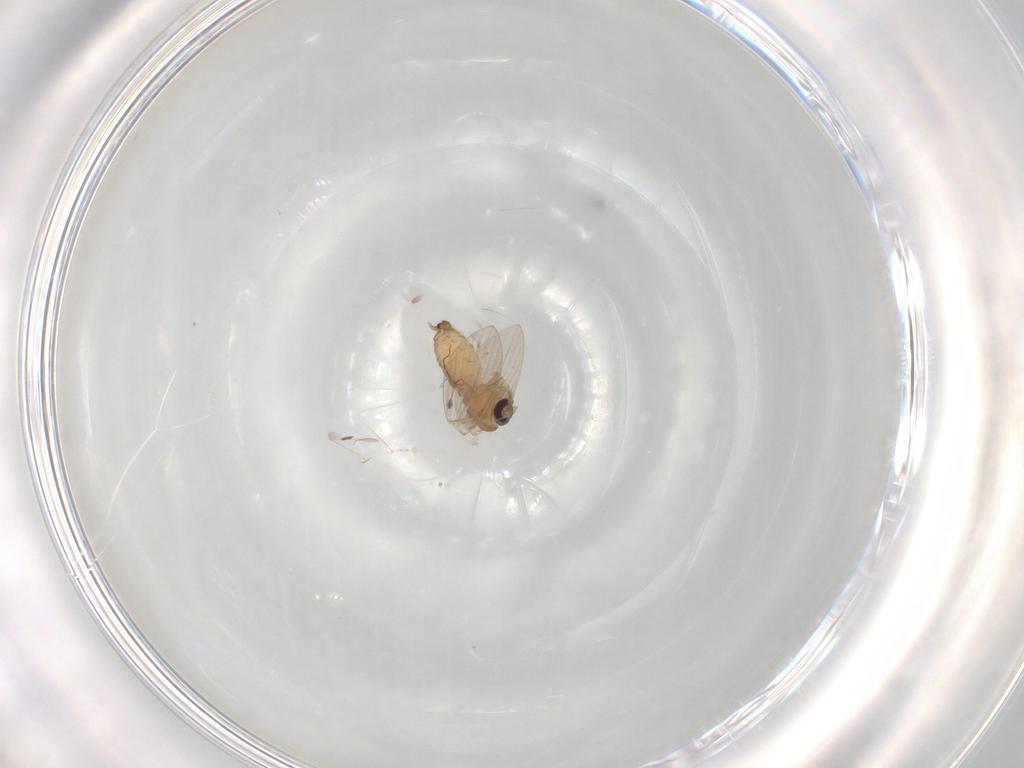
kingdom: Animalia
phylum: Arthropoda
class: Insecta
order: Diptera
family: Psychodidae
